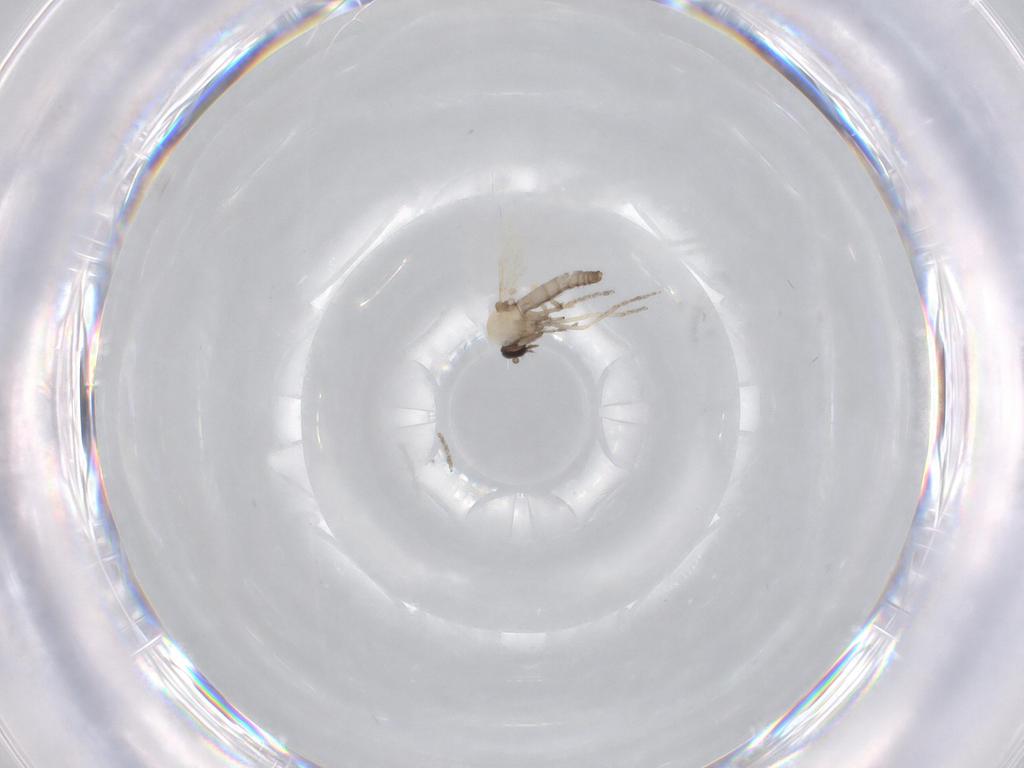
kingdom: Animalia
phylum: Arthropoda
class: Insecta
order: Diptera
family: Ceratopogonidae
